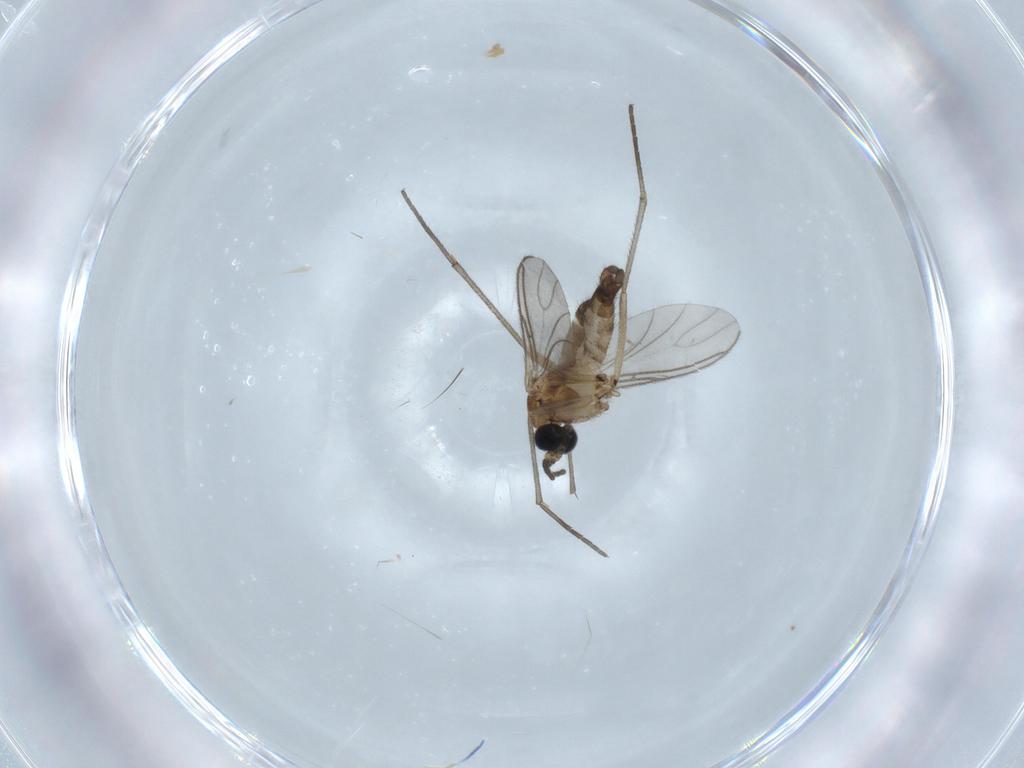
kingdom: Animalia
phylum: Arthropoda
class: Insecta
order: Diptera
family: Sciaridae
